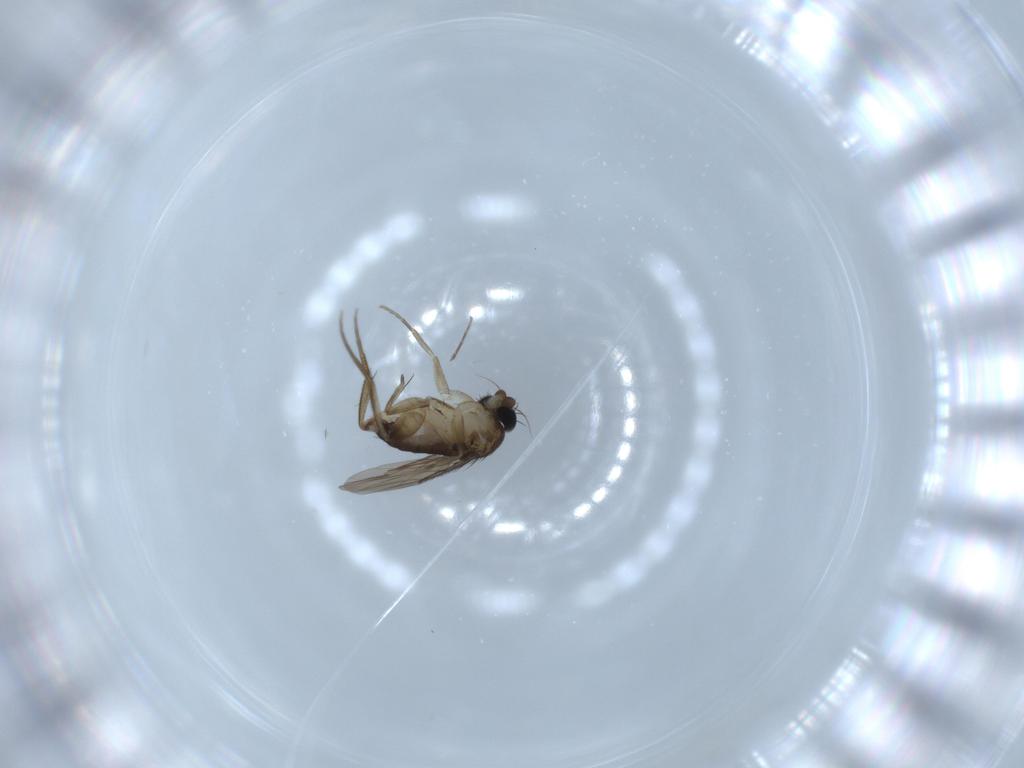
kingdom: Animalia
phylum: Arthropoda
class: Insecta
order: Diptera
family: Phoridae
